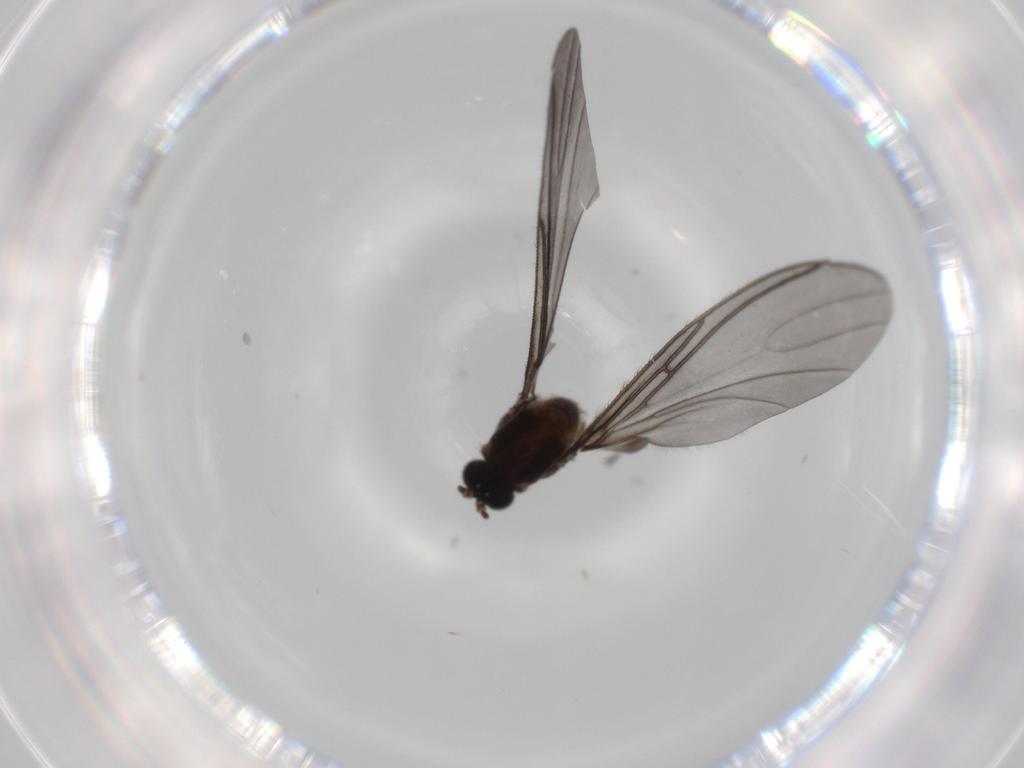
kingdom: Animalia
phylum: Arthropoda
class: Insecta
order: Diptera
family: Sciaridae
